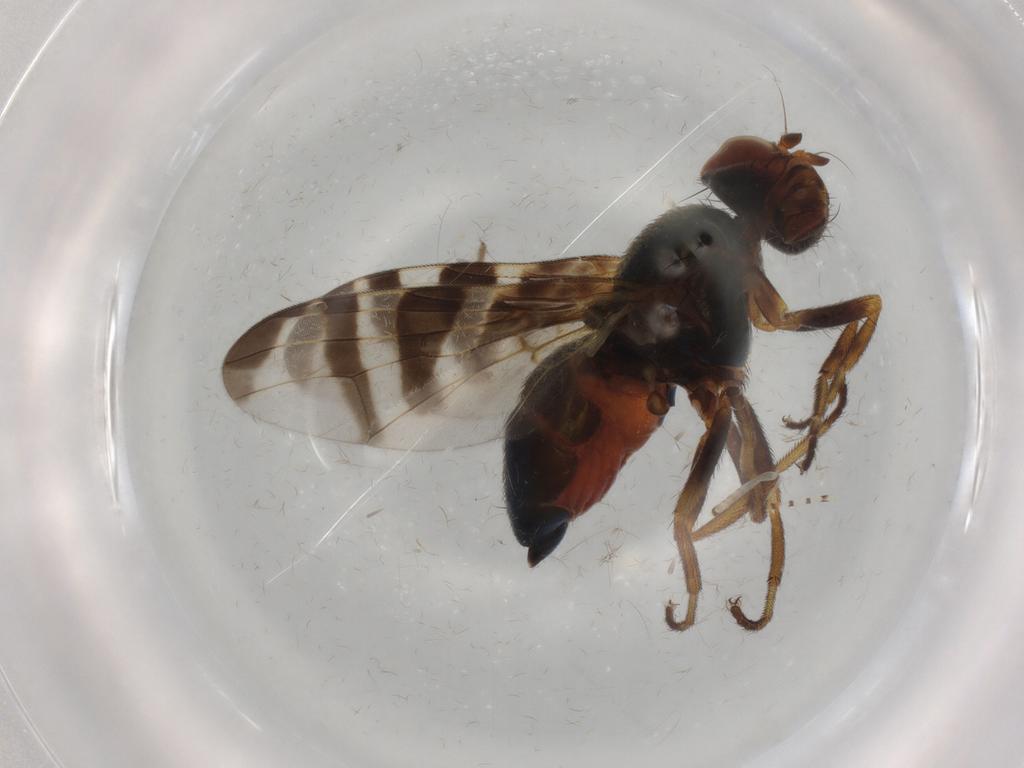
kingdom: Animalia
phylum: Arthropoda
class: Insecta
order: Diptera
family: Platystomatidae
